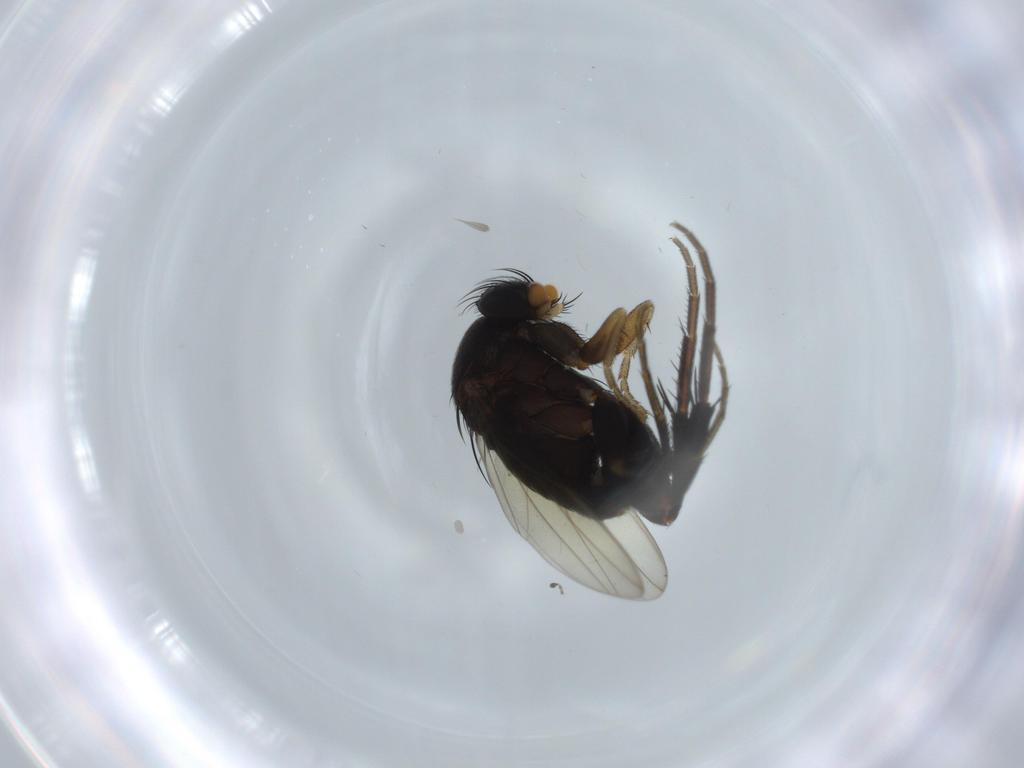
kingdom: Animalia
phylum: Arthropoda
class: Insecta
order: Diptera
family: Phoridae
